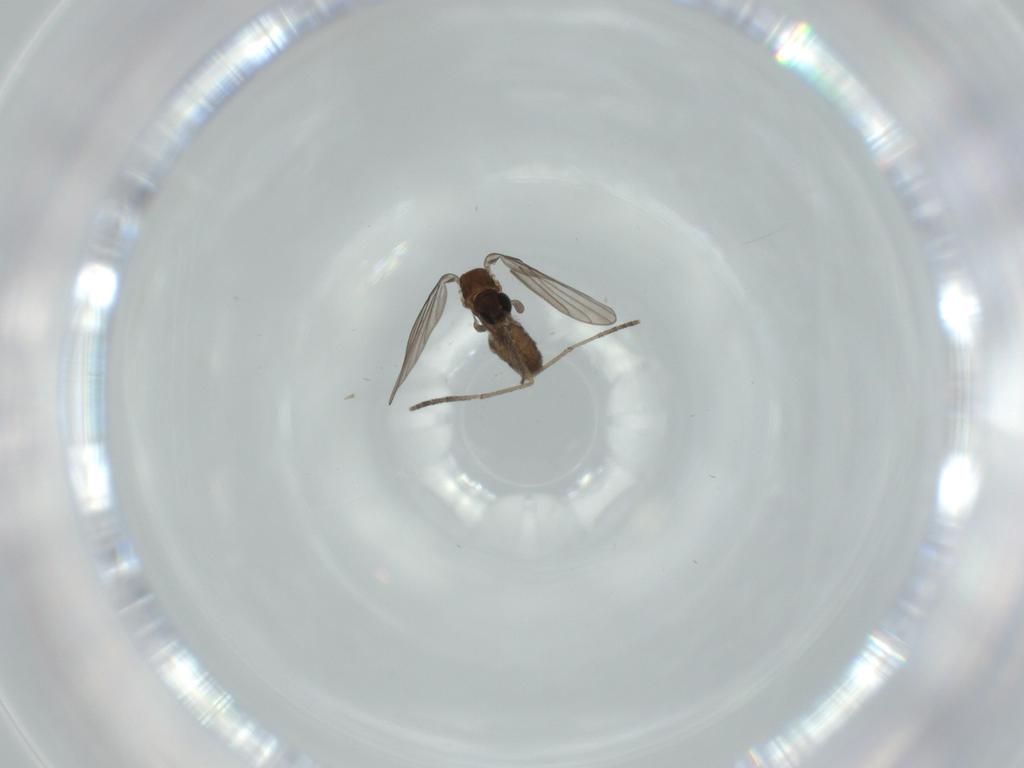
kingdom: Animalia
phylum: Arthropoda
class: Insecta
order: Diptera
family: Psychodidae
